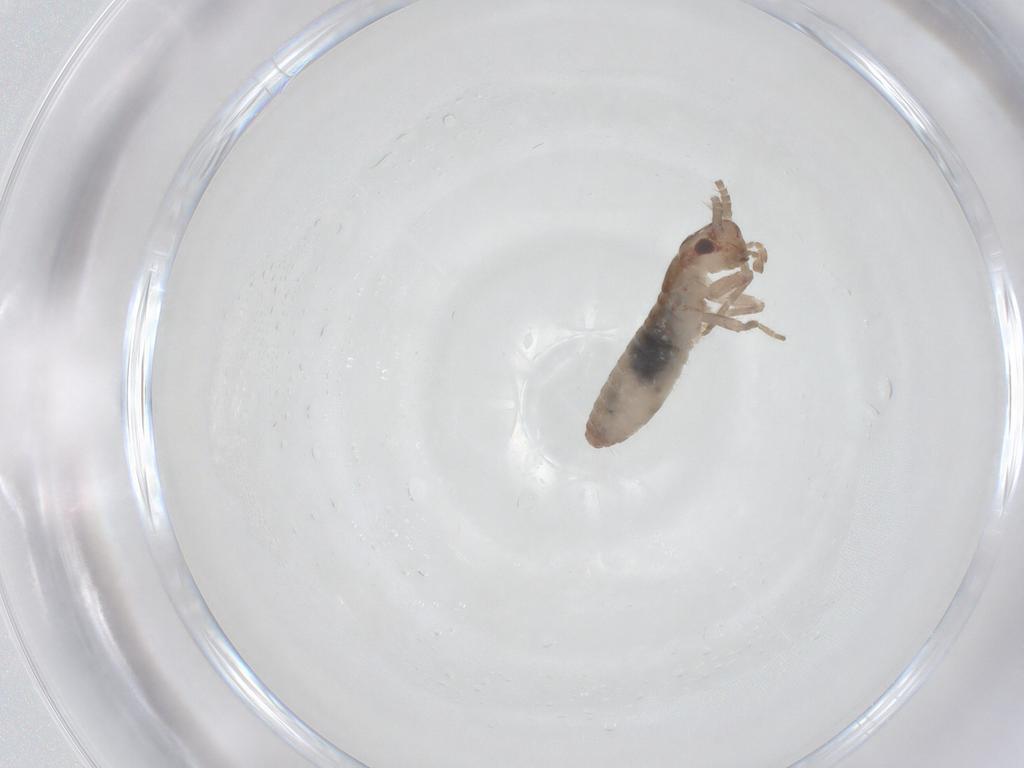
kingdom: Animalia
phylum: Arthropoda
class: Insecta
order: Orthoptera
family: Mogoplistidae
